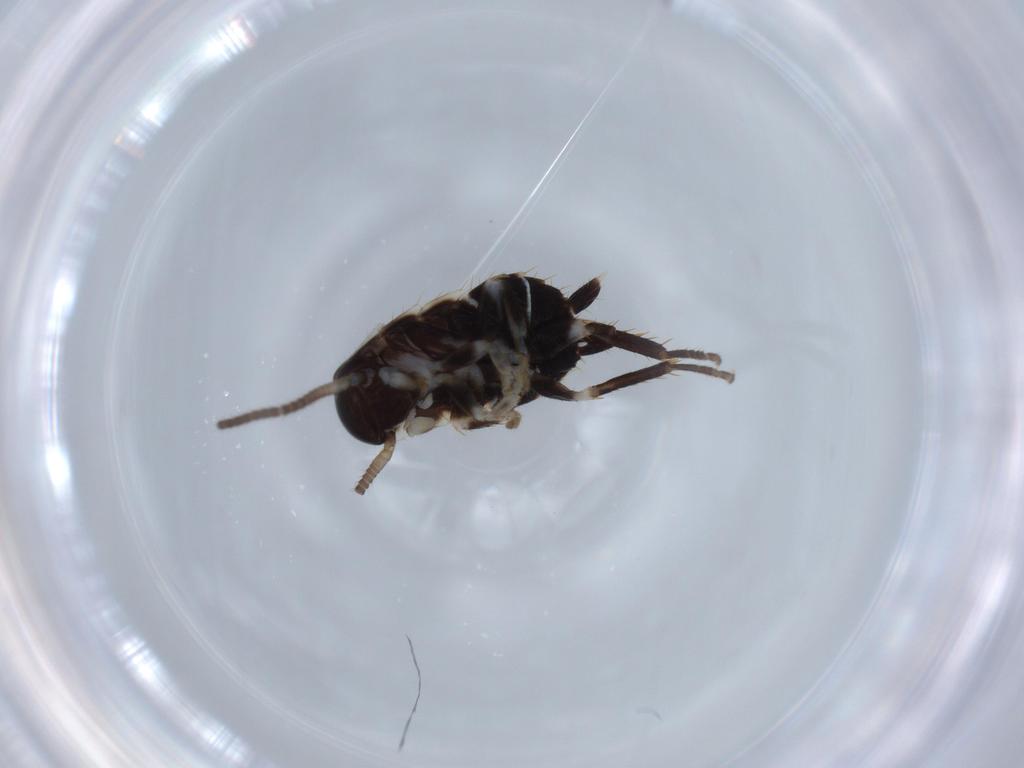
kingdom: Animalia
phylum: Arthropoda
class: Insecta
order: Blattodea
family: Ectobiidae
